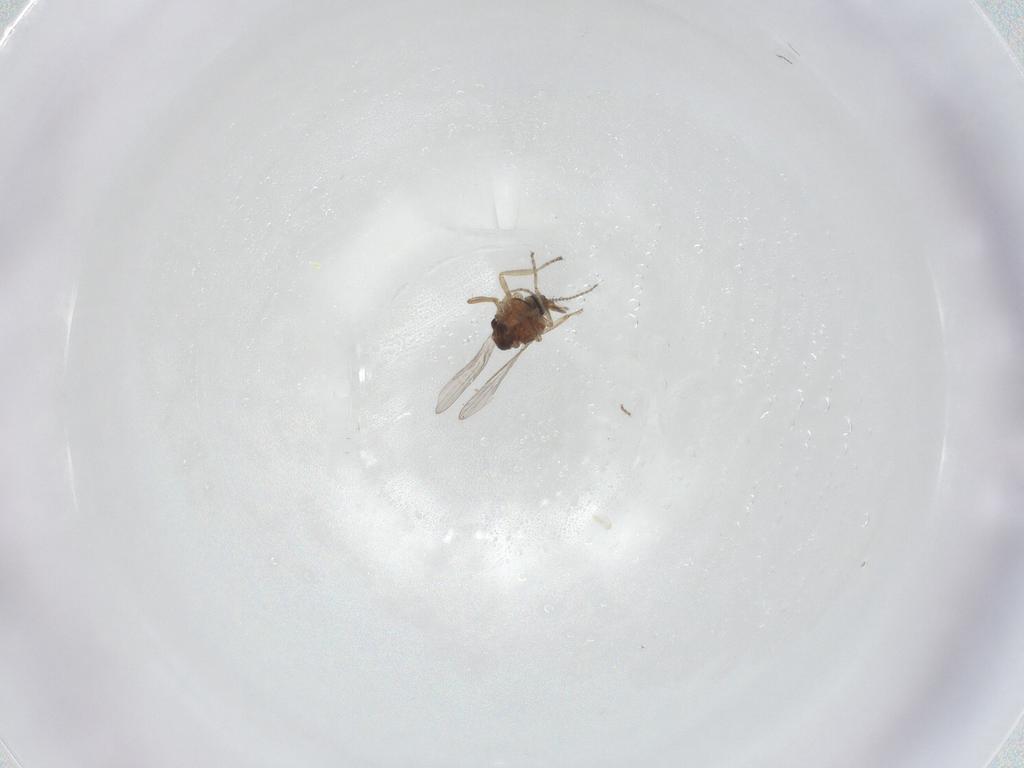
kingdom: Animalia
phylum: Arthropoda
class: Insecta
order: Diptera
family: Ceratopogonidae
